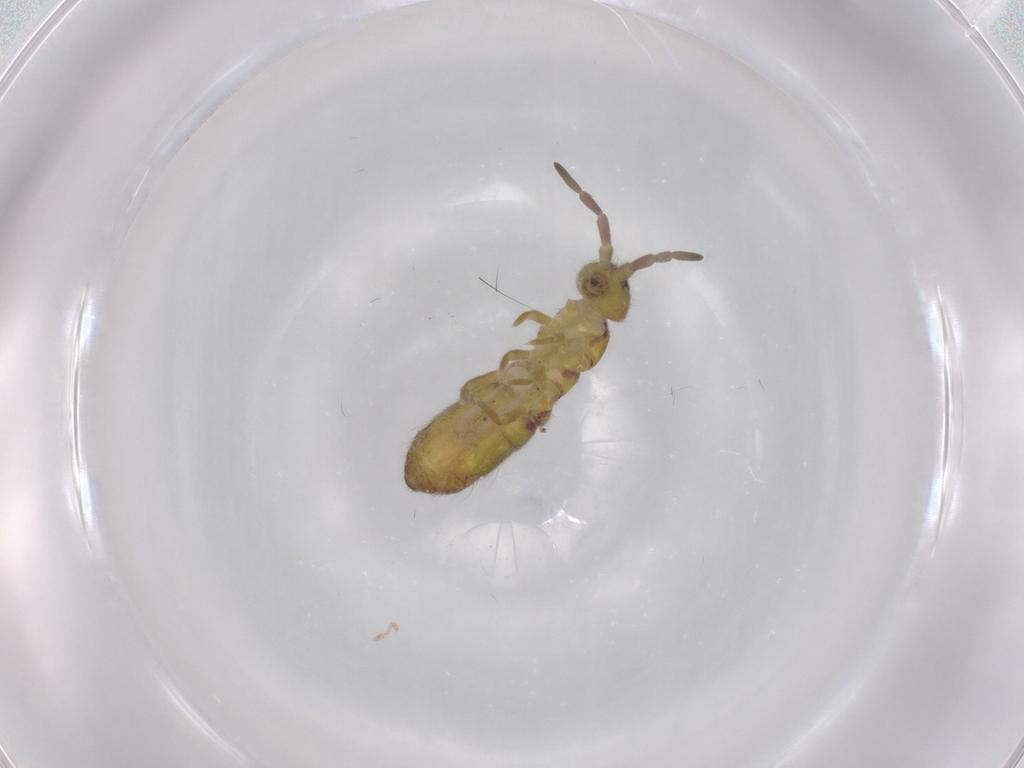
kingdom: Animalia
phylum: Arthropoda
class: Collembola
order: Entomobryomorpha
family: Isotomidae
